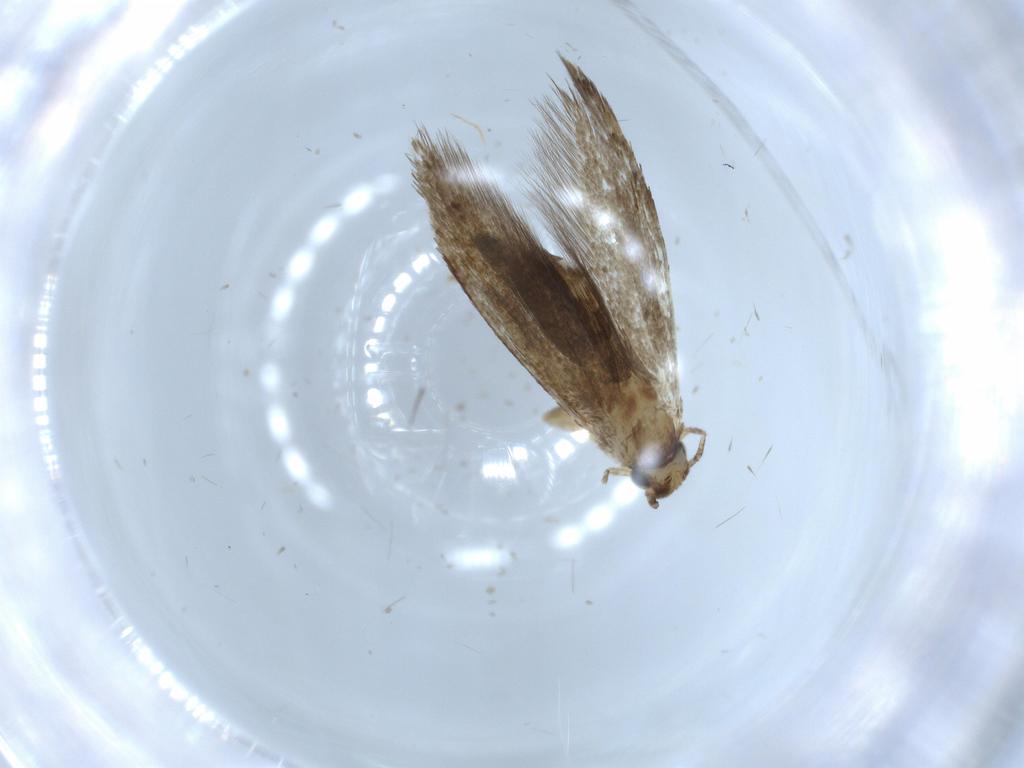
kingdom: Animalia
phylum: Arthropoda
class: Insecta
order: Lepidoptera
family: Tineidae
